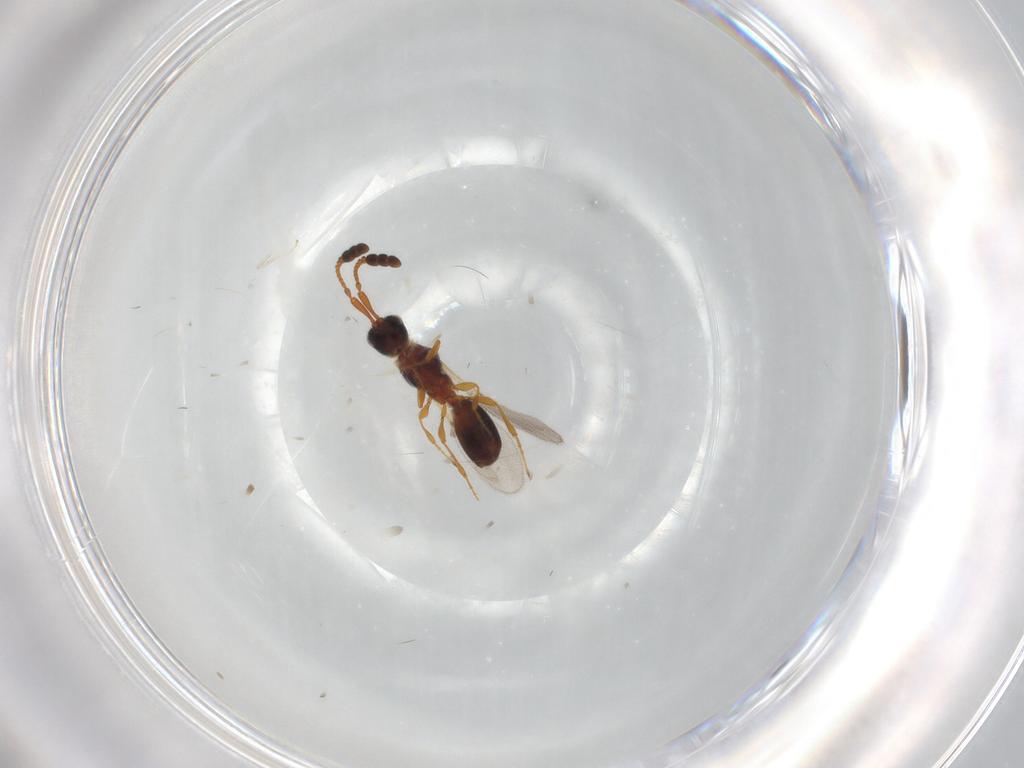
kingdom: Animalia
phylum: Arthropoda
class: Insecta
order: Hymenoptera
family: Diapriidae
